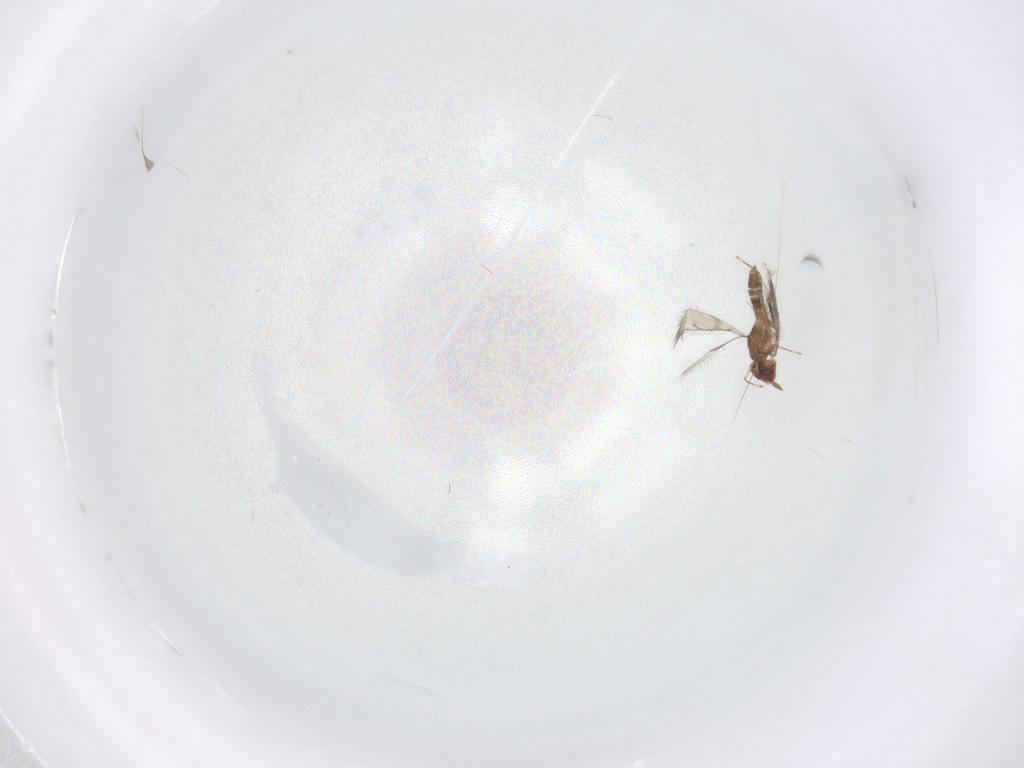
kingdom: Animalia
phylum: Arthropoda
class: Insecta
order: Hymenoptera
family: Eulophidae
